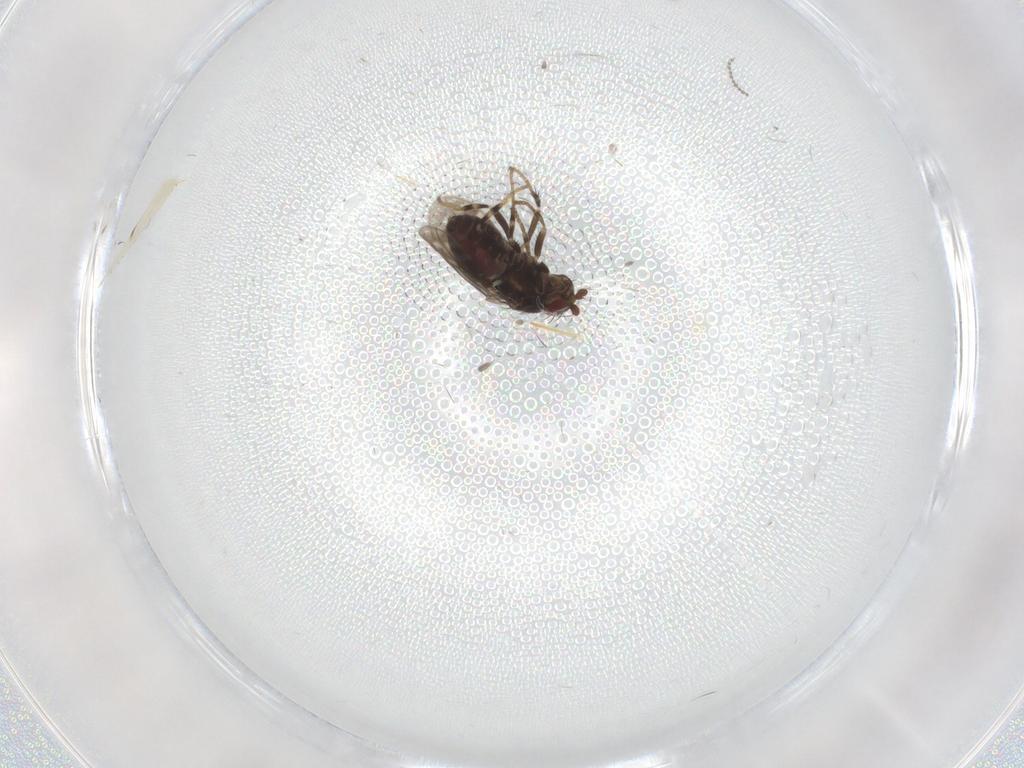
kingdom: Animalia
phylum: Arthropoda
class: Insecta
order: Diptera
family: Sphaeroceridae
